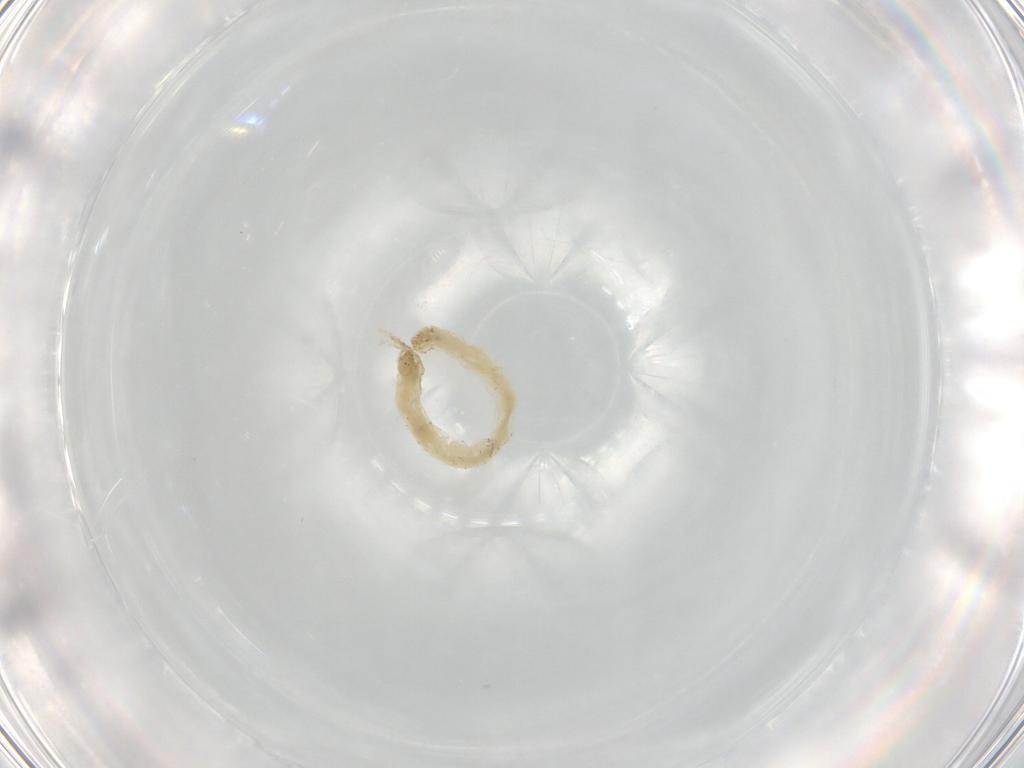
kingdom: Animalia
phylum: Arthropoda
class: Insecta
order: Diptera
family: Chironomidae
